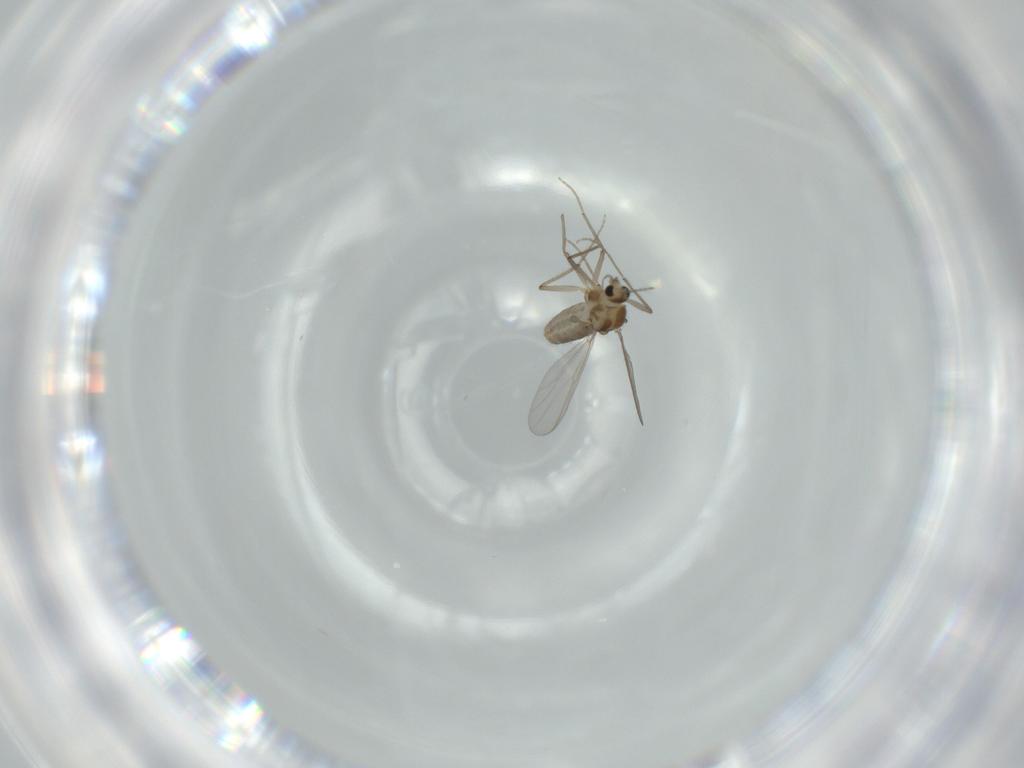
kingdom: Animalia
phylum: Arthropoda
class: Insecta
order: Diptera
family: Chironomidae
